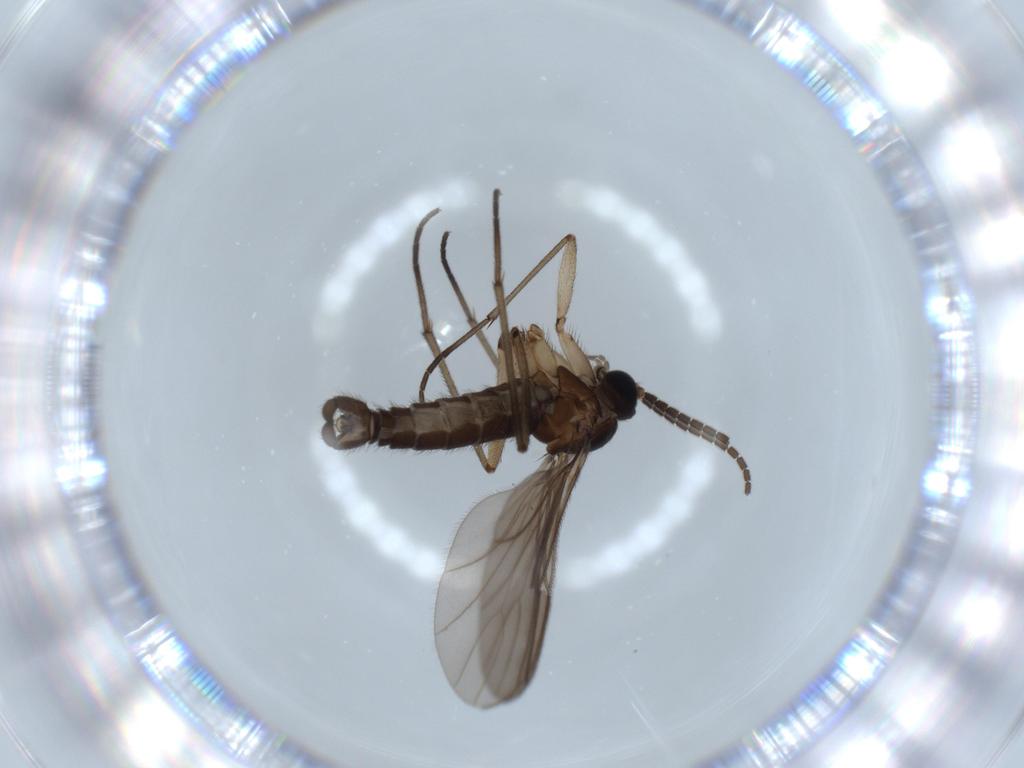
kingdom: Animalia
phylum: Arthropoda
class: Insecta
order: Diptera
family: Sciaridae
